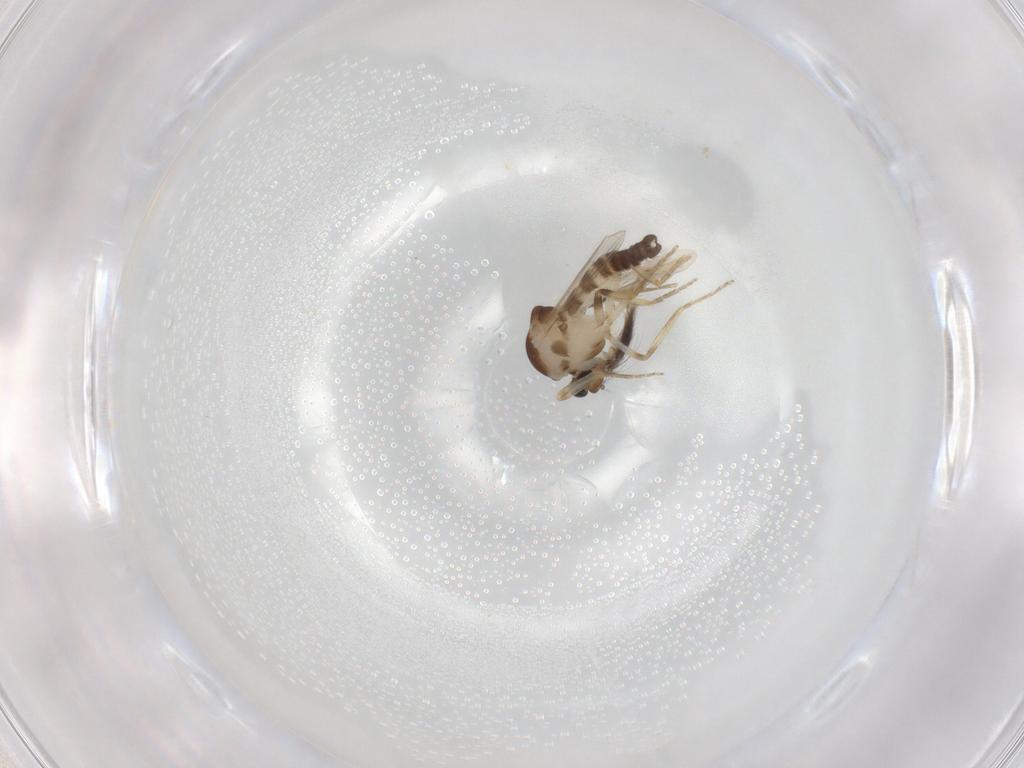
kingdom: Animalia
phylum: Arthropoda
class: Insecta
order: Diptera
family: Ceratopogonidae
